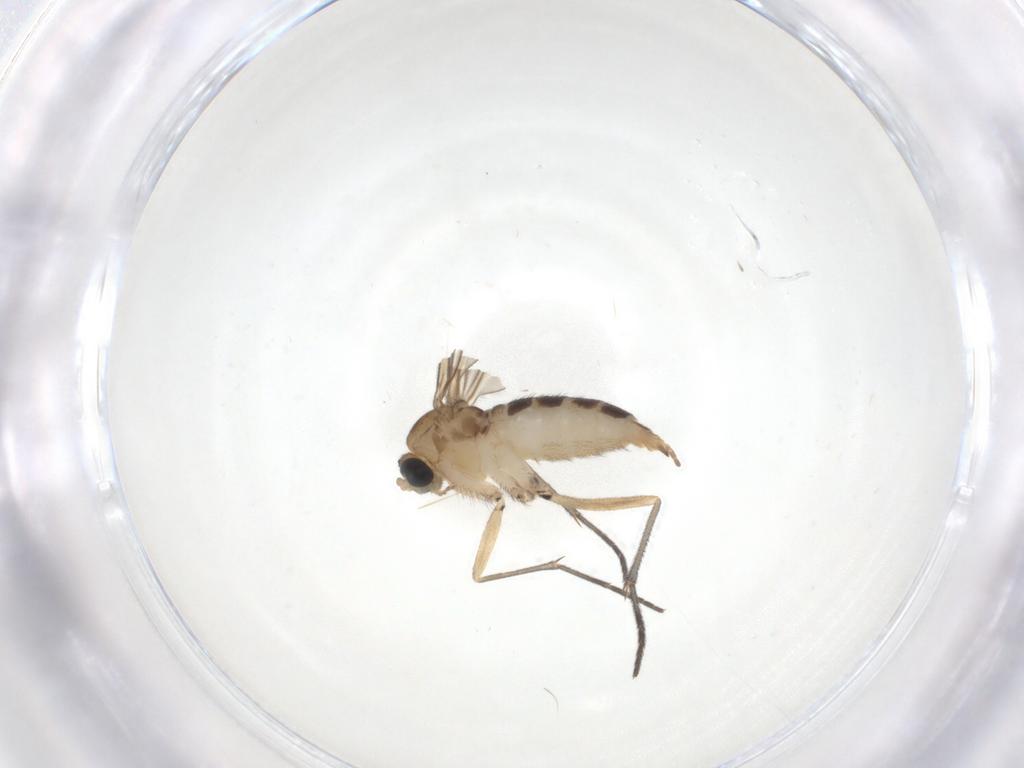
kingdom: Animalia
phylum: Arthropoda
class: Insecta
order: Diptera
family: Sciaridae
